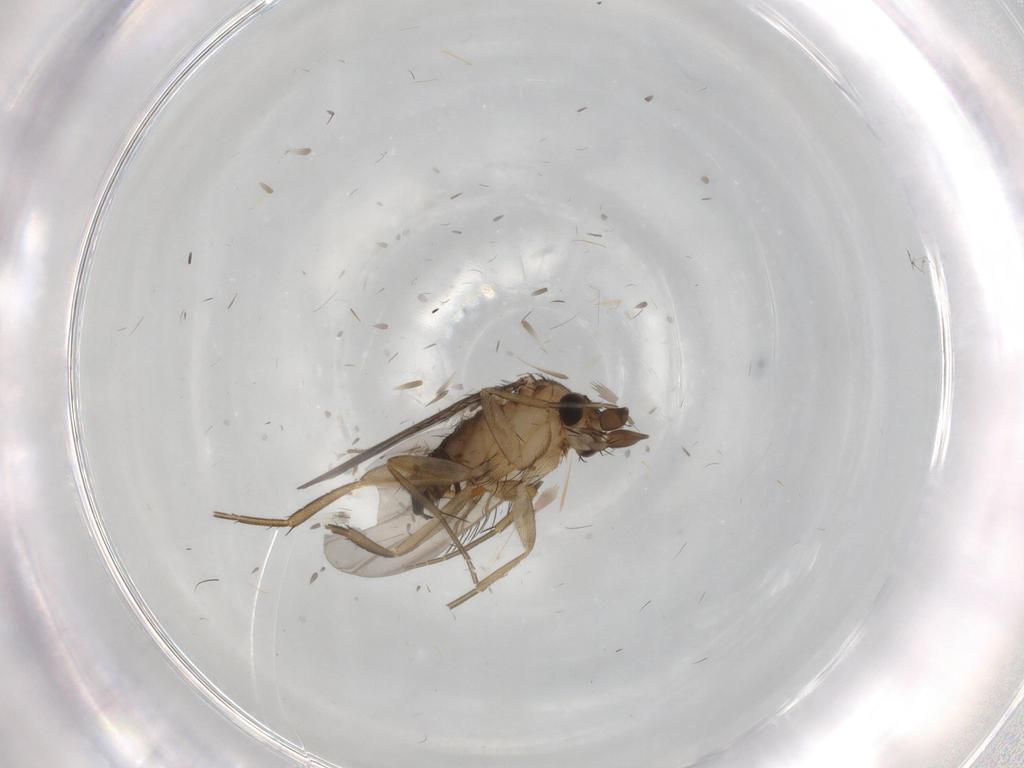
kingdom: Animalia
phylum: Arthropoda
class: Insecta
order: Diptera
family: Phoridae
